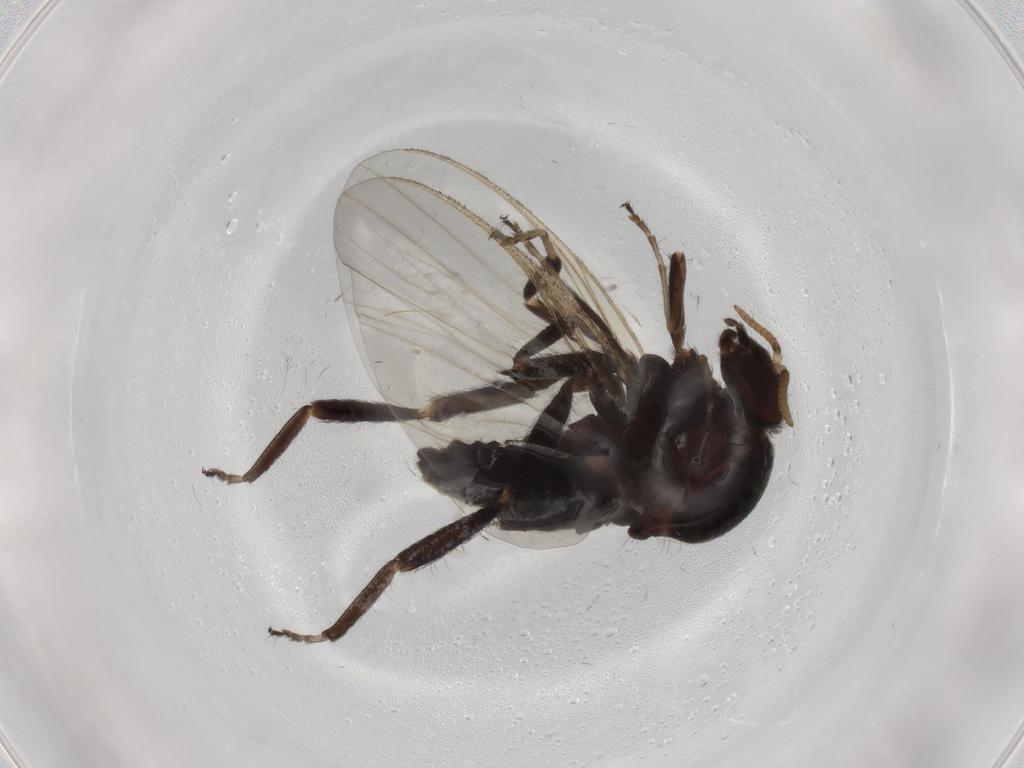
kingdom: Animalia
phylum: Arthropoda
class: Insecta
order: Diptera
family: Simuliidae
